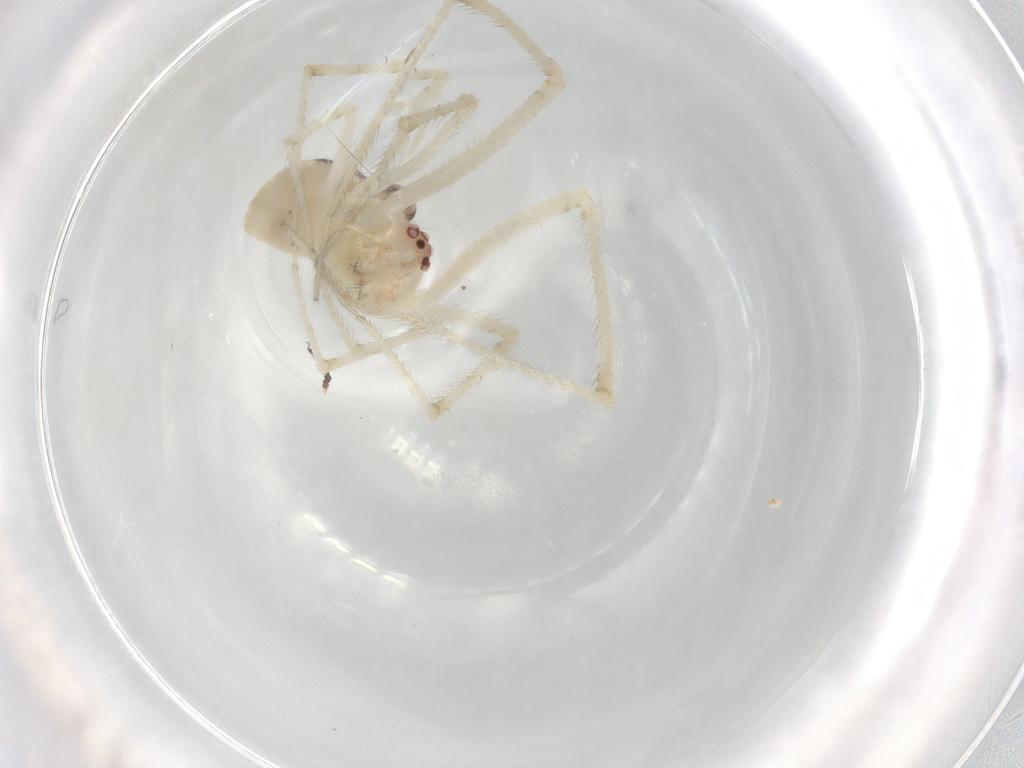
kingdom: Animalia
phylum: Arthropoda
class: Arachnida
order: Araneae
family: Theridiidae
